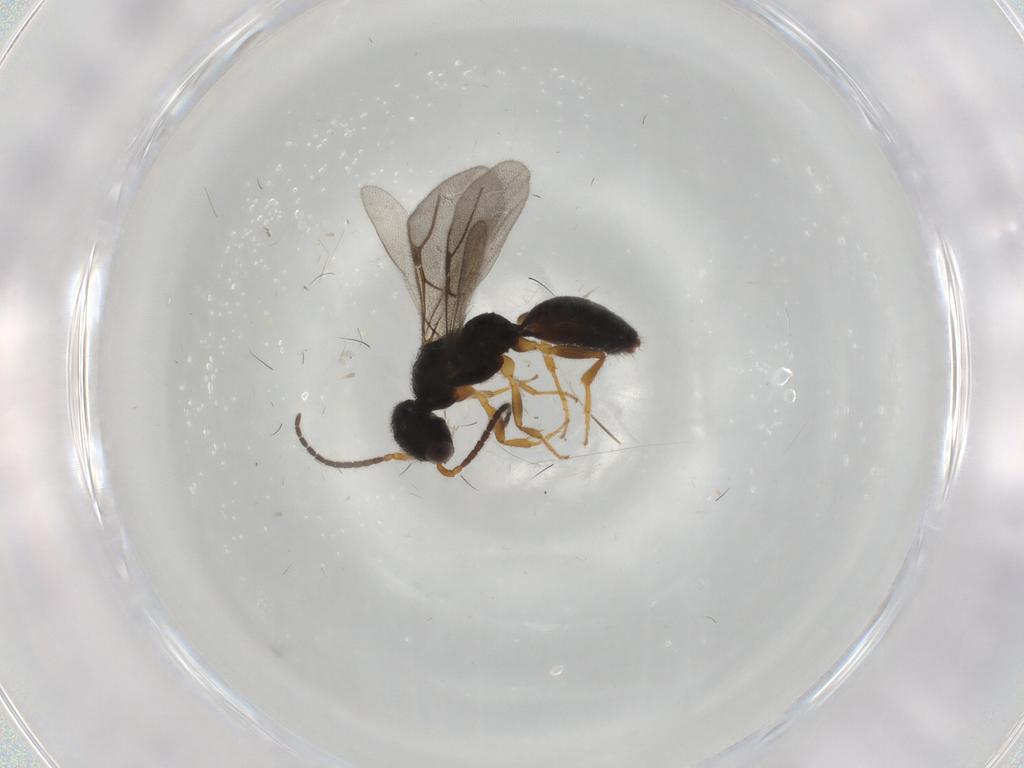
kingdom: Animalia
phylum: Arthropoda
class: Insecta
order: Hymenoptera
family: Bethylidae
